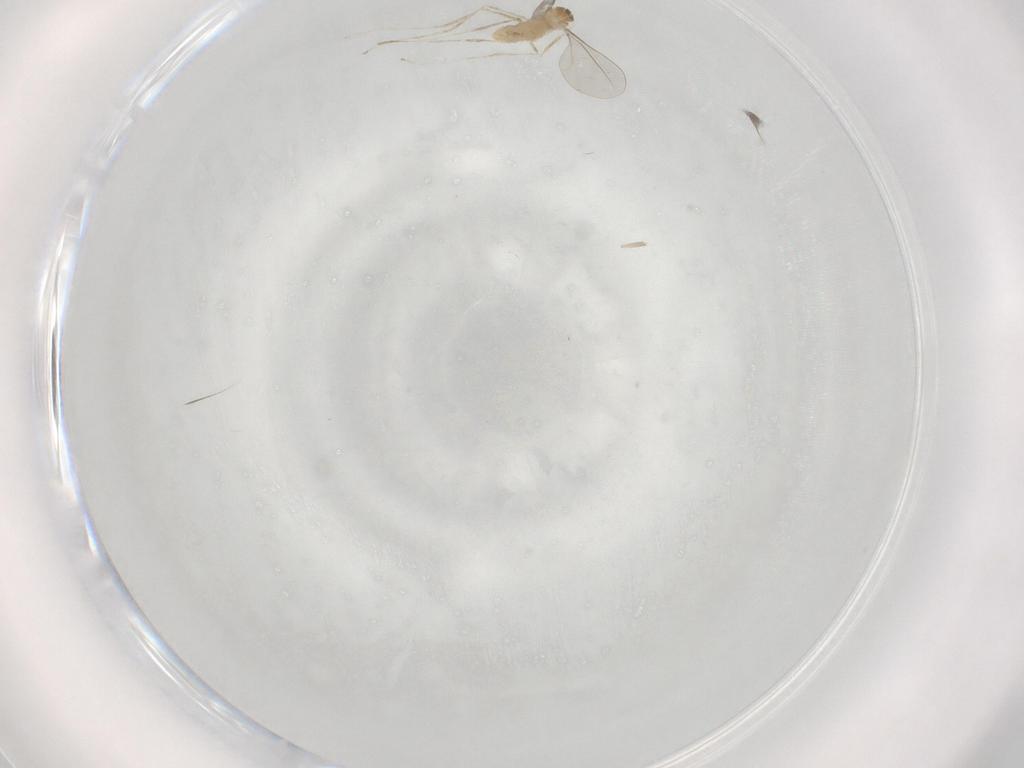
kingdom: Animalia
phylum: Arthropoda
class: Insecta
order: Diptera
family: Cecidomyiidae
